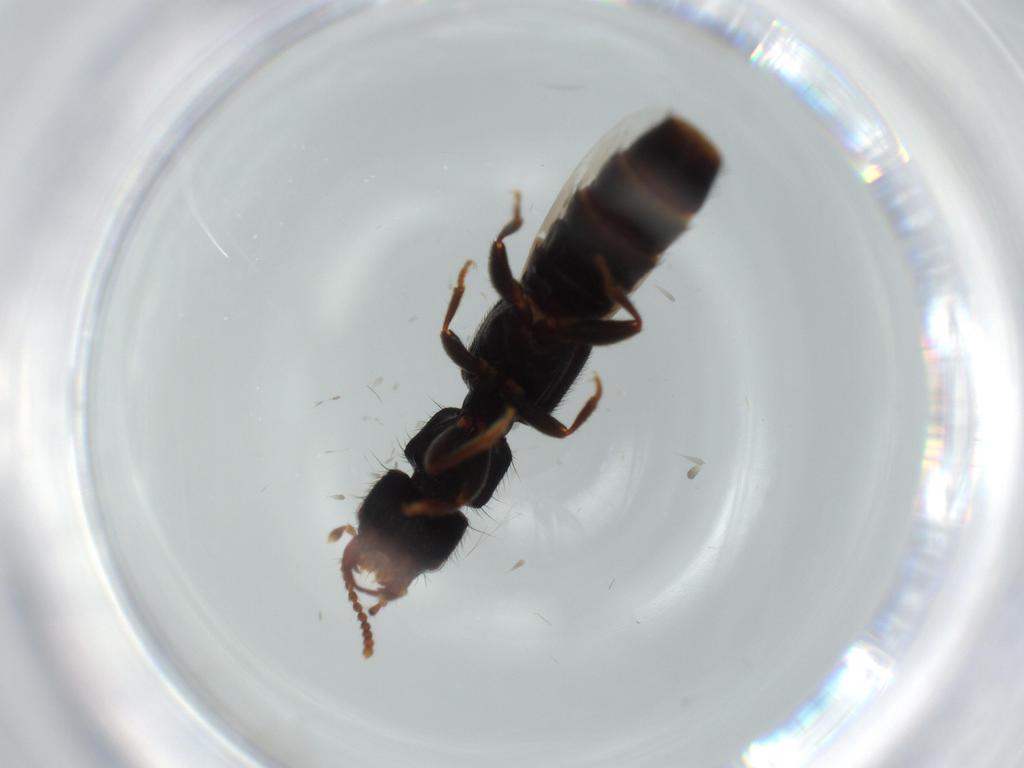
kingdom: Animalia
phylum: Arthropoda
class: Insecta
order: Coleoptera
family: Staphylinidae
